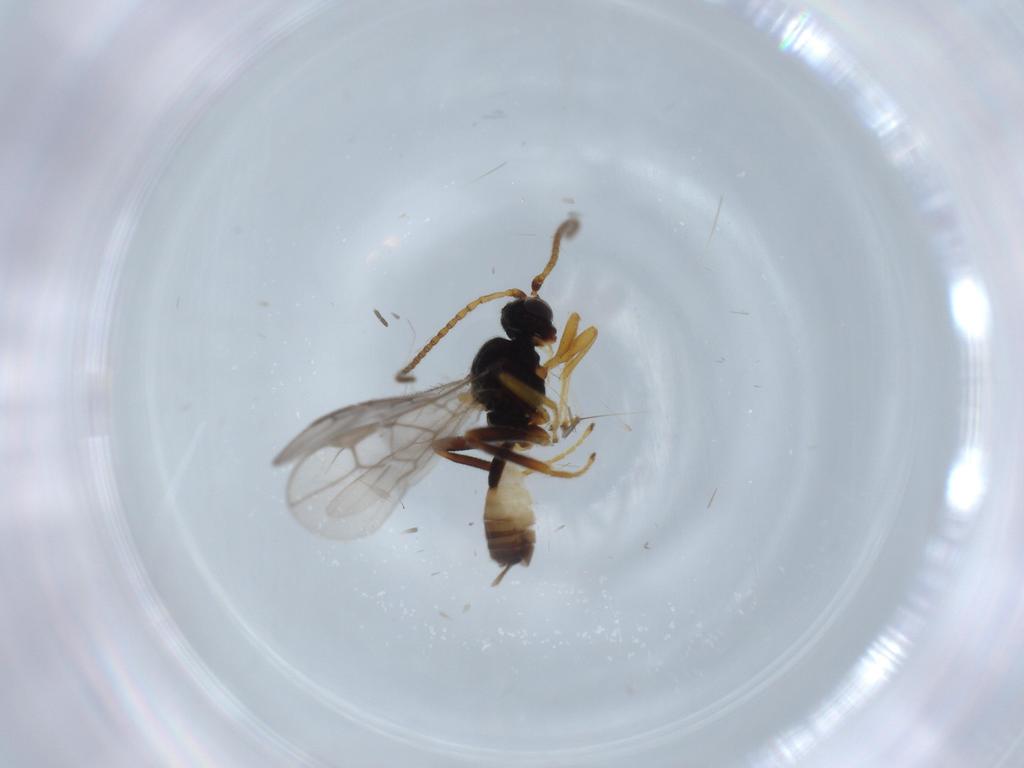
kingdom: Animalia
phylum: Arthropoda
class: Insecta
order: Hymenoptera
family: Braconidae
